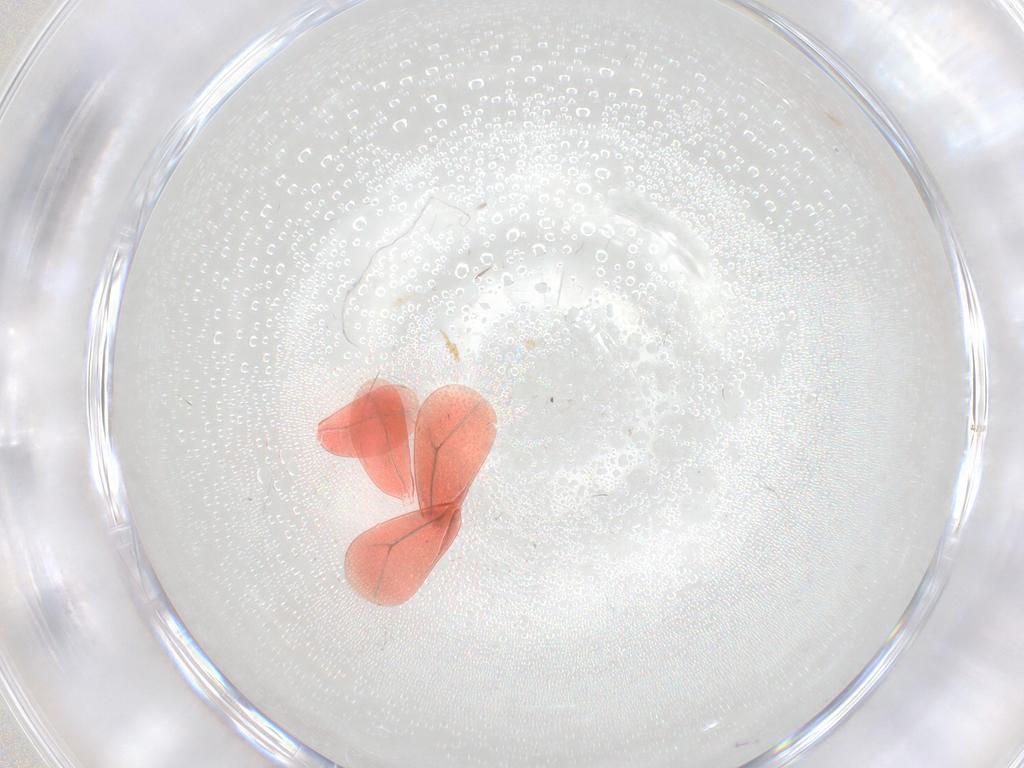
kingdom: Animalia
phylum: Arthropoda
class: Insecta
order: Hemiptera
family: Aleyrodidae
